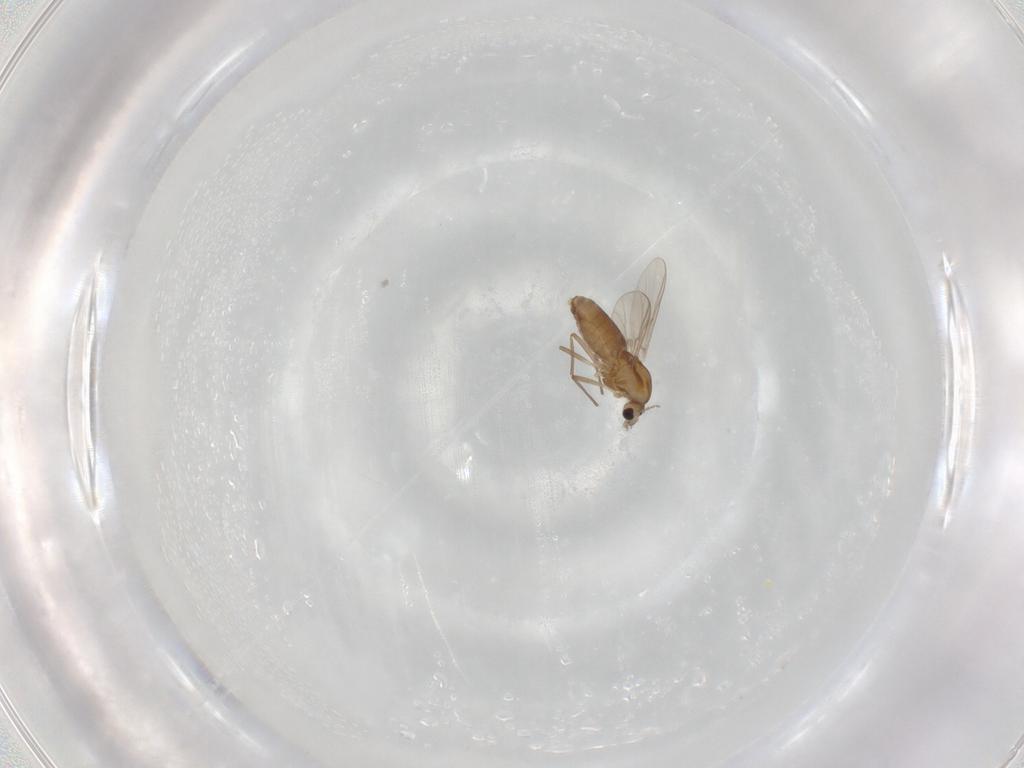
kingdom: Animalia
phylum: Arthropoda
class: Insecta
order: Diptera
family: Chironomidae
